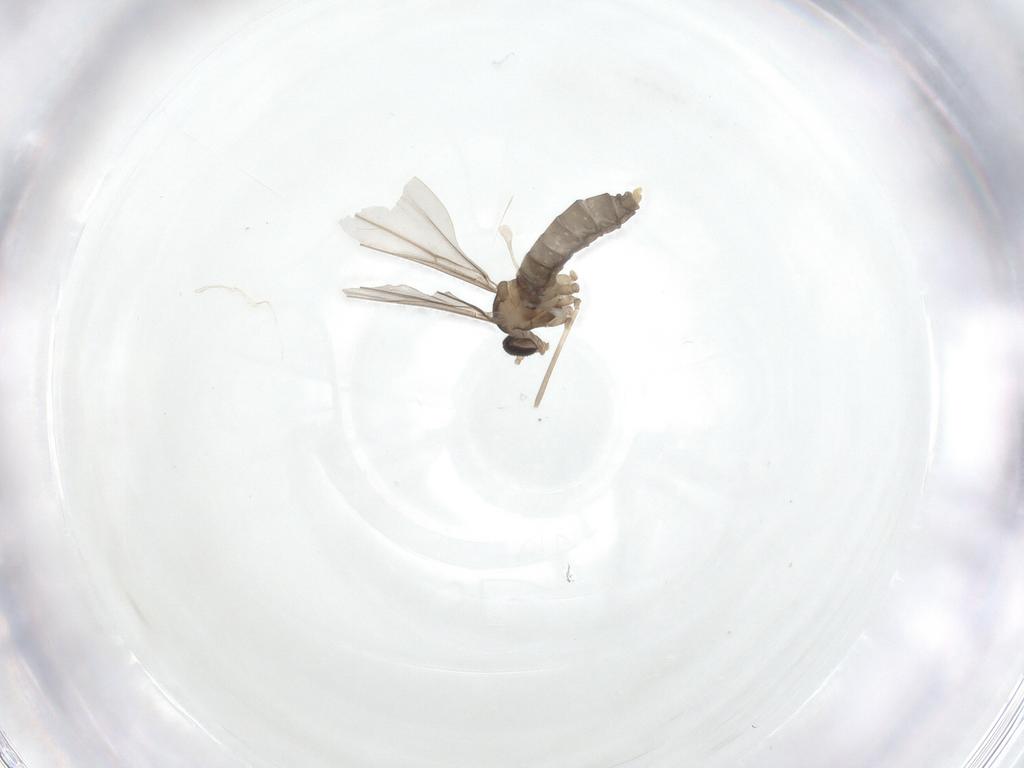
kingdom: Animalia
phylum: Arthropoda
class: Insecta
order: Diptera
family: Cecidomyiidae
